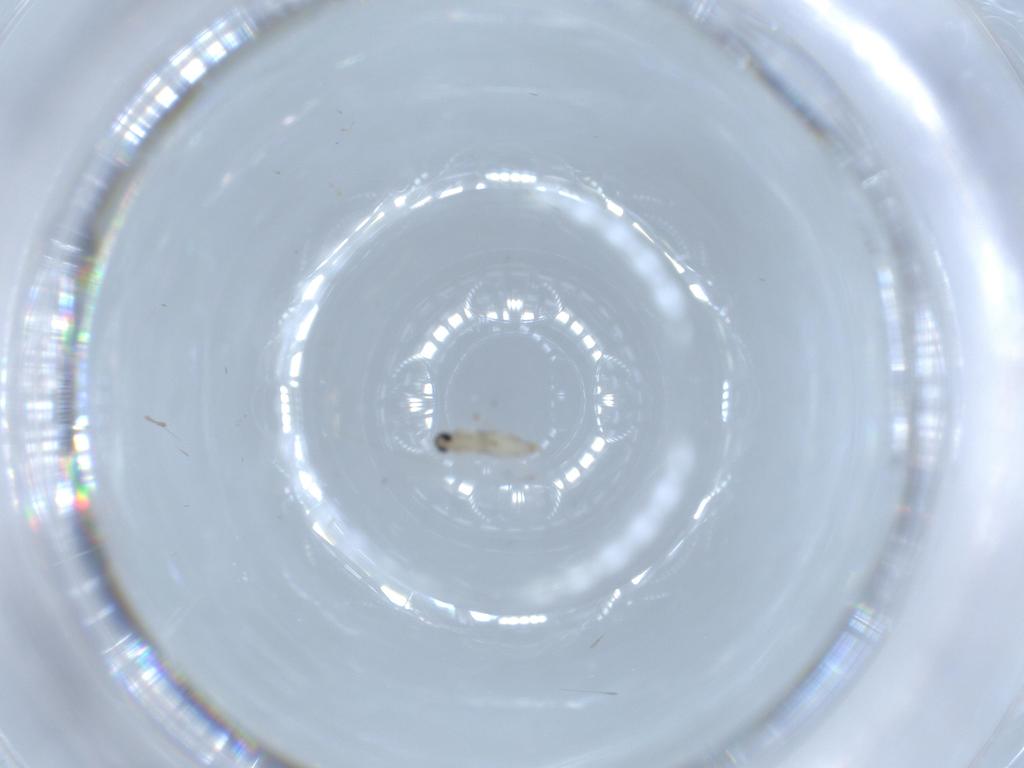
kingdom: Animalia
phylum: Arthropoda
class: Insecta
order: Diptera
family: Cecidomyiidae
